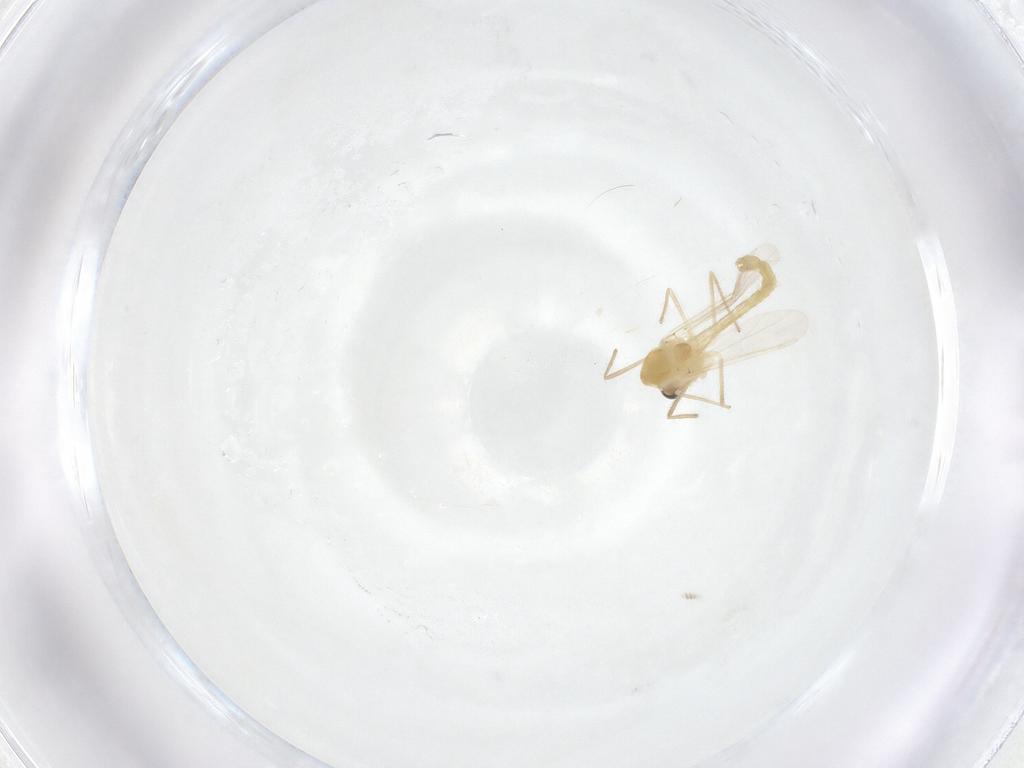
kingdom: Animalia
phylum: Arthropoda
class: Insecta
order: Diptera
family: Chironomidae
